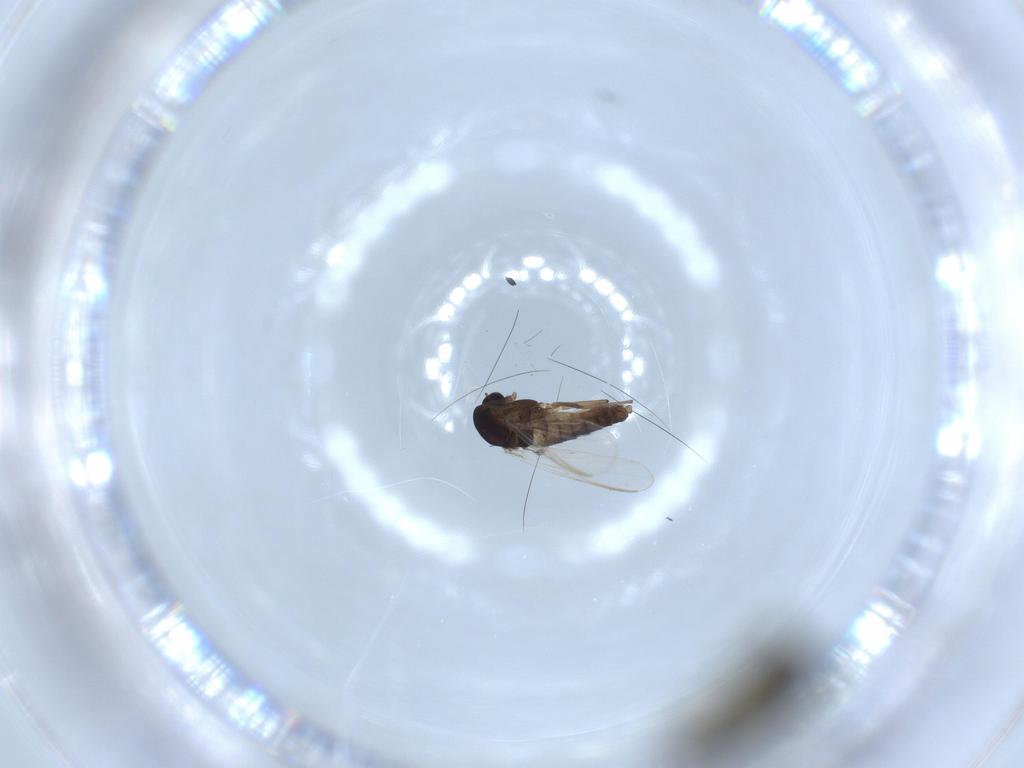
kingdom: Animalia
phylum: Arthropoda
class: Insecta
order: Diptera
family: Chironomidae
